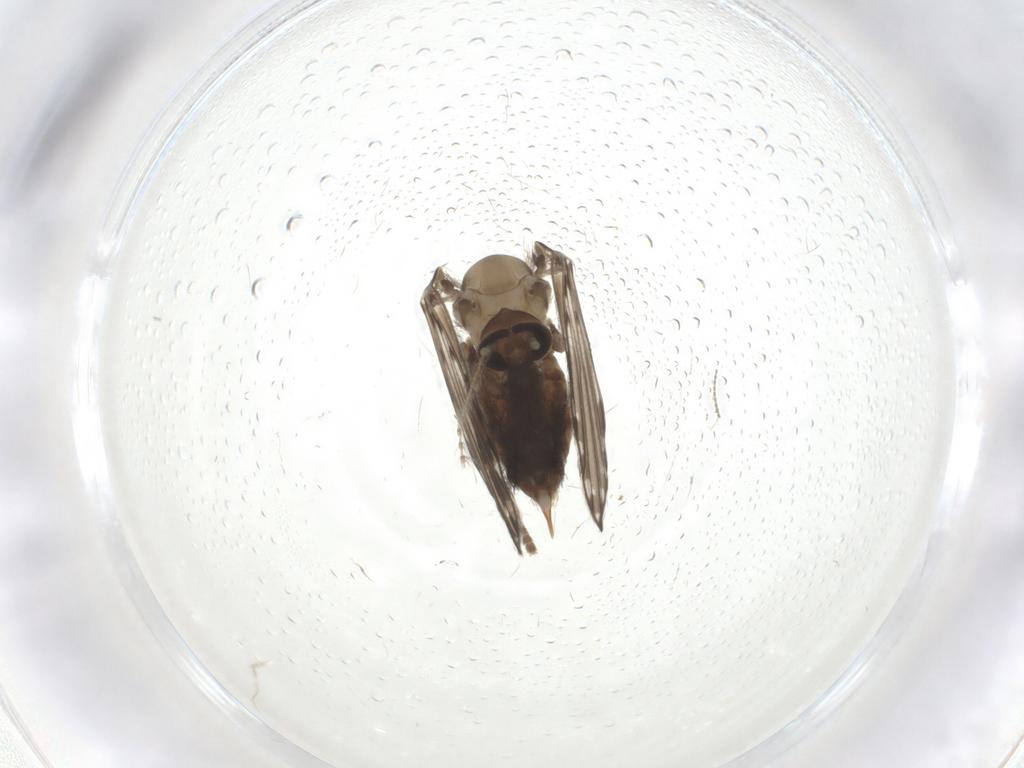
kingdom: Animalia
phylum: Arthropoda
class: Insecta
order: Diptera
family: Psychodidae
